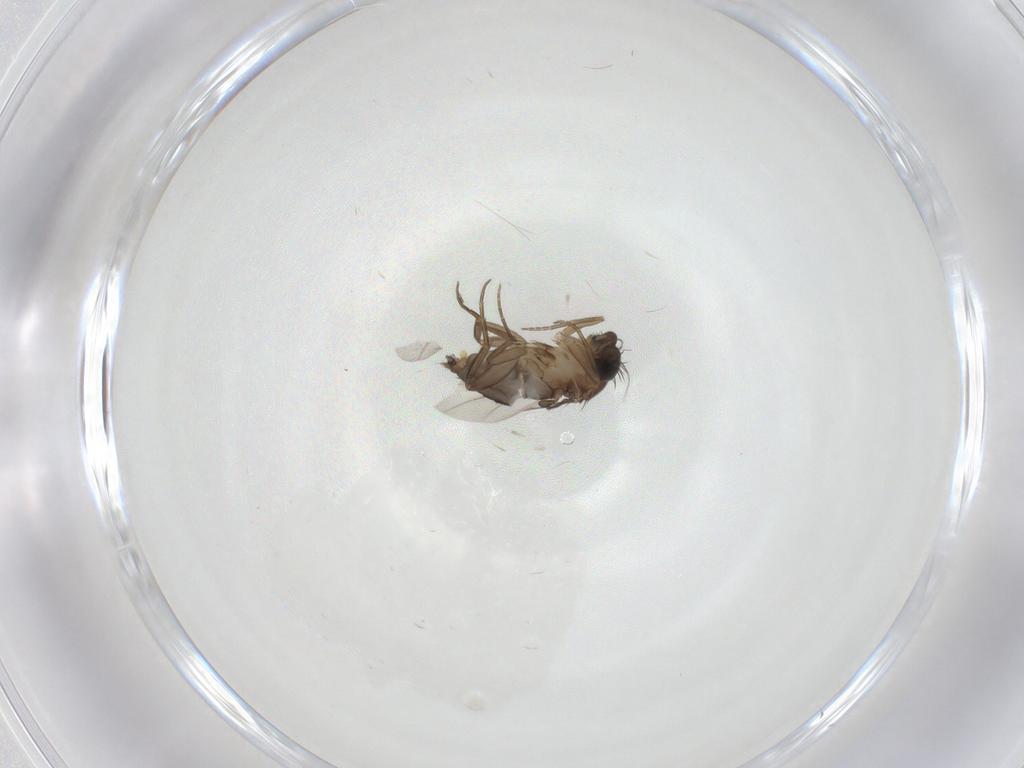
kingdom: Animalia
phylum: Arthropoda
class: Insecta
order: Diptera
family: Phoridae
